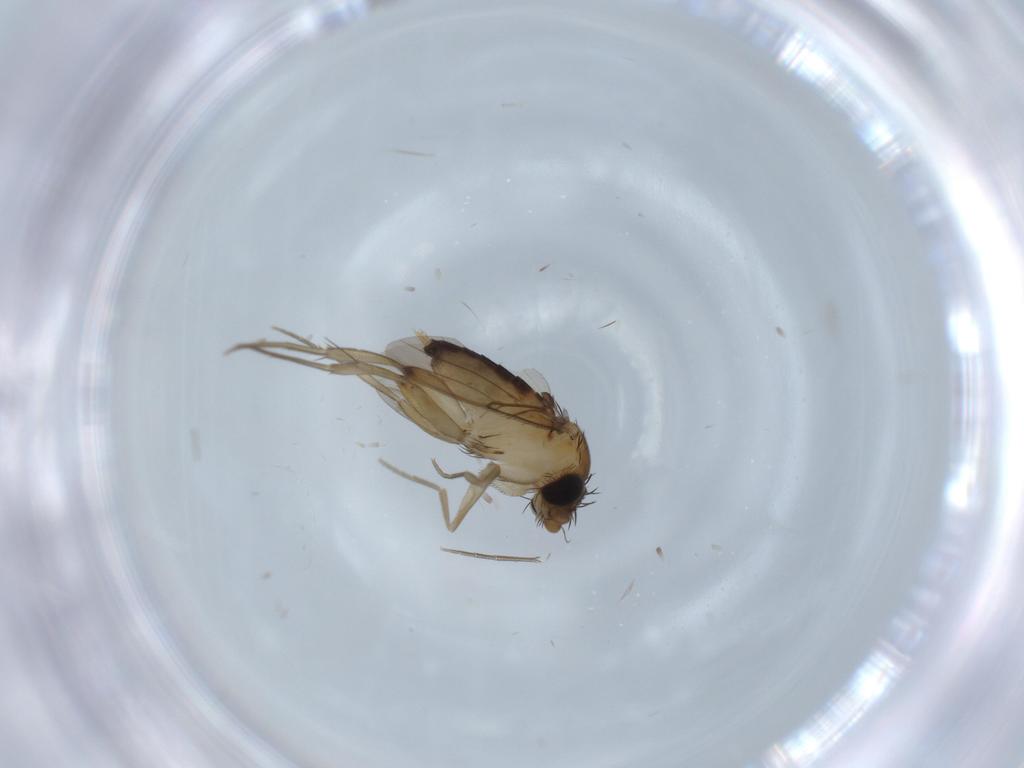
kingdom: Animalia
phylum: Arthropoda
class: Insecta
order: Diptera
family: Phoridae
